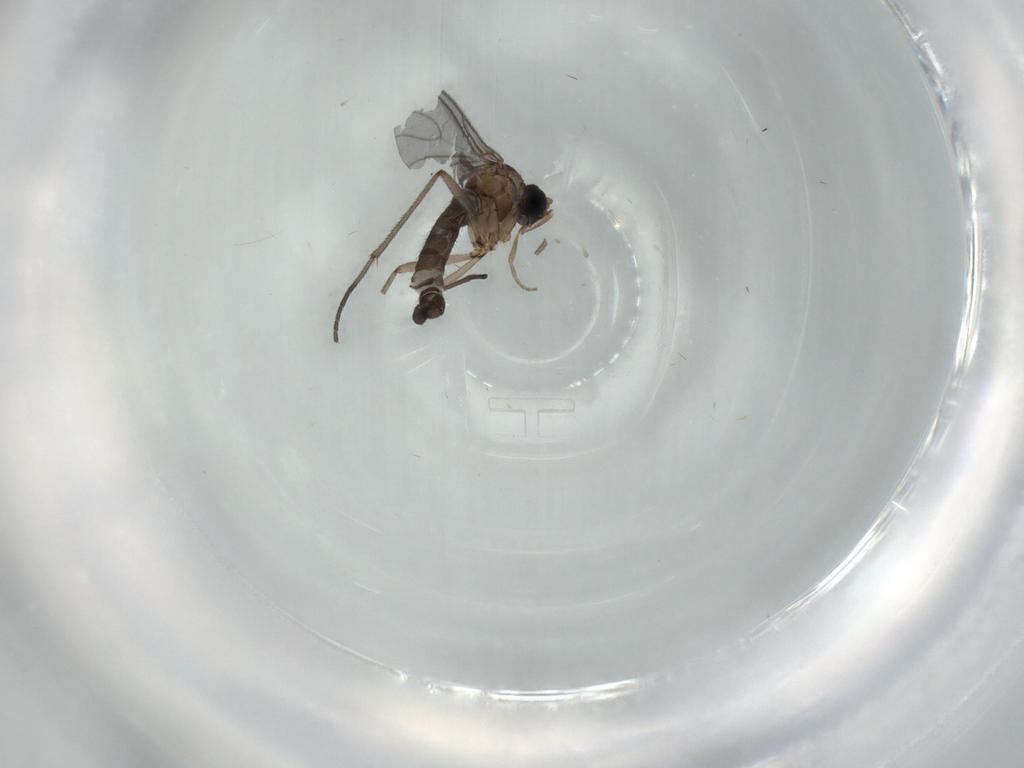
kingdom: Animalia
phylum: Arthropoda
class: Insecta
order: Diptera
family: Sciaridae
